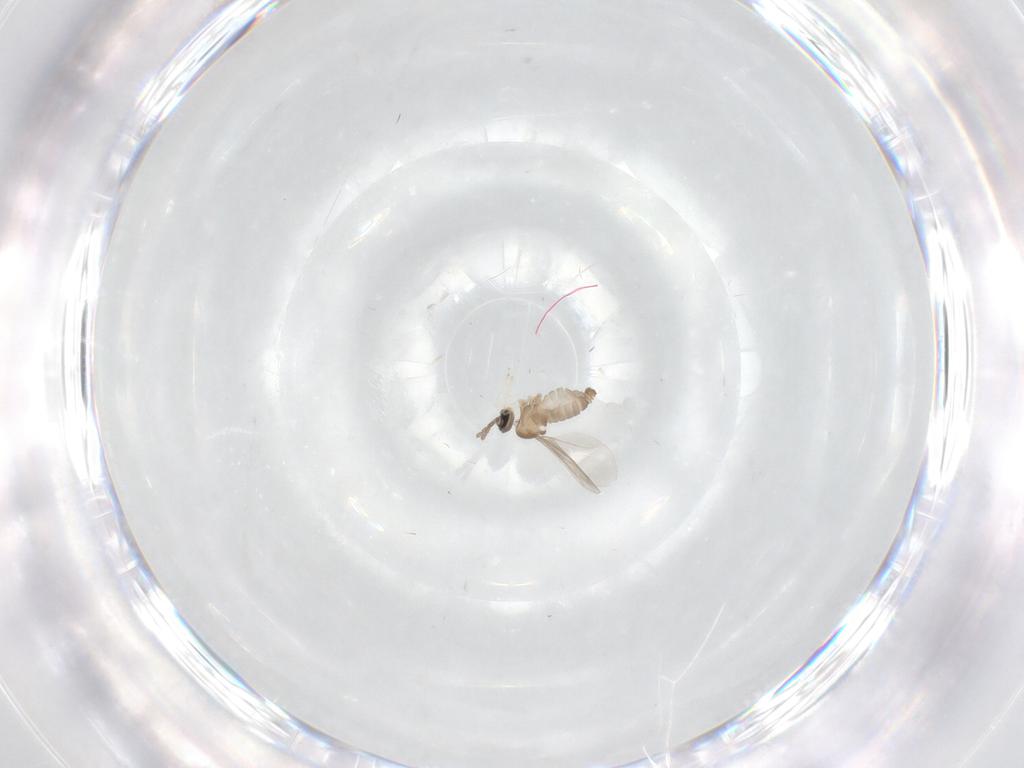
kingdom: Animalia
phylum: Arthropoda
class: Insecta
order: Diptera
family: Cecidomyiidae
